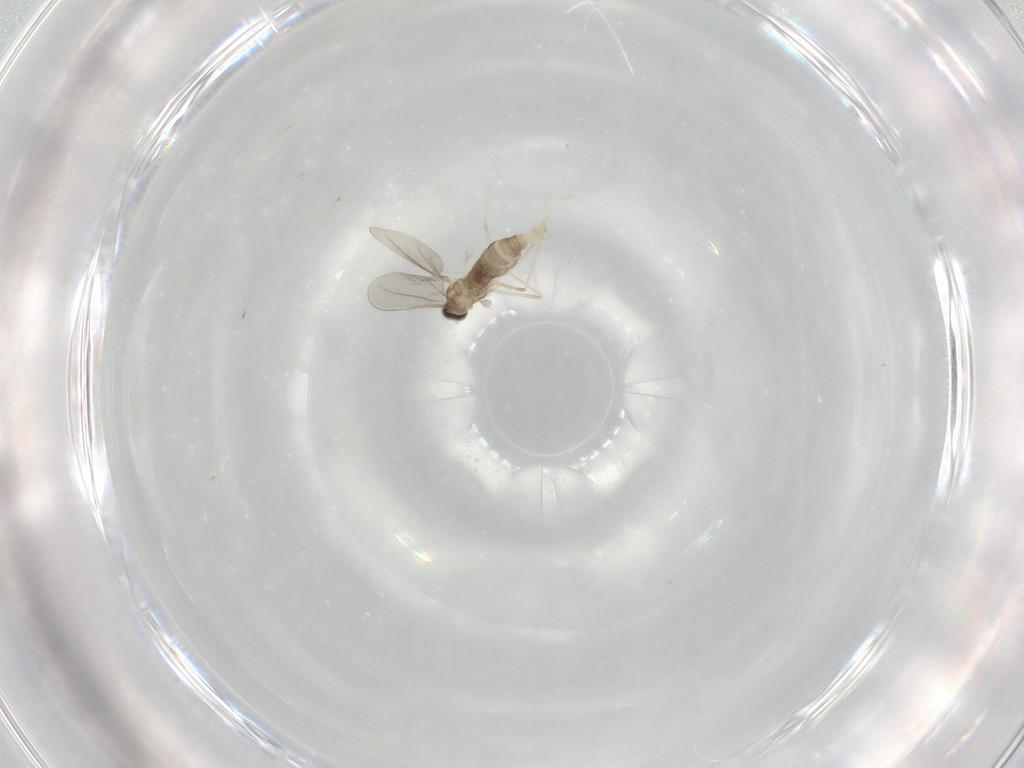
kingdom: Animalia
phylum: Arthropoda
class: Insecta
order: Diptera
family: Cecidomyiidae
